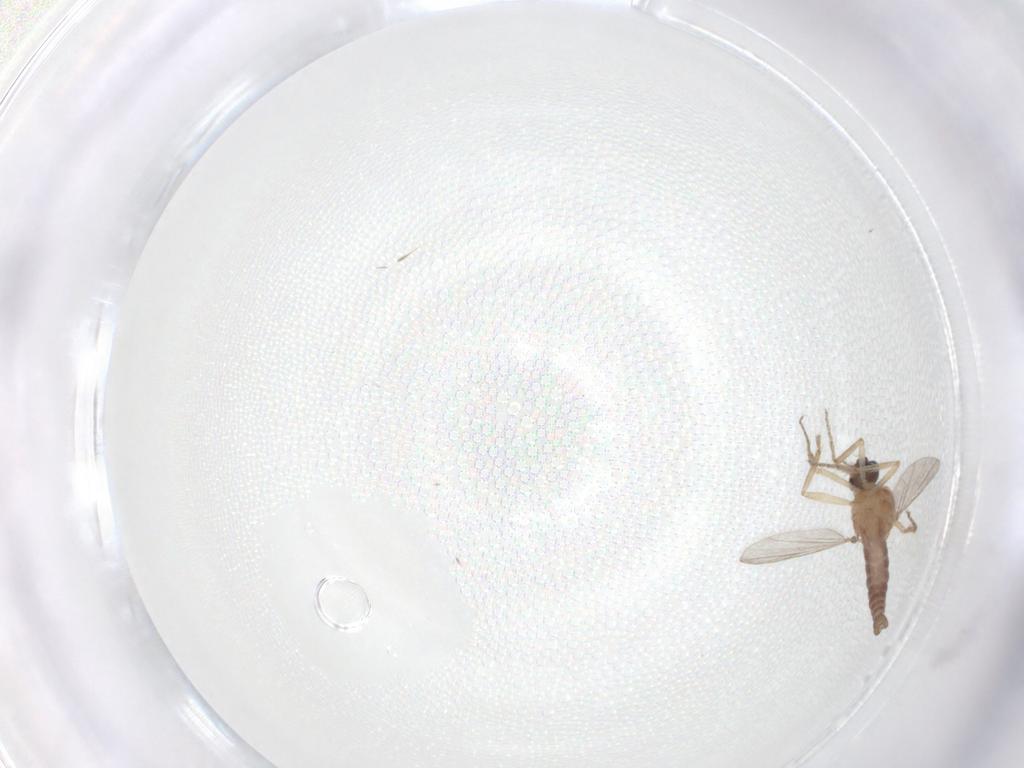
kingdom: Animalia
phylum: Arthropoda
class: Insecta
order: Diptera
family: Ceratopogonidae
